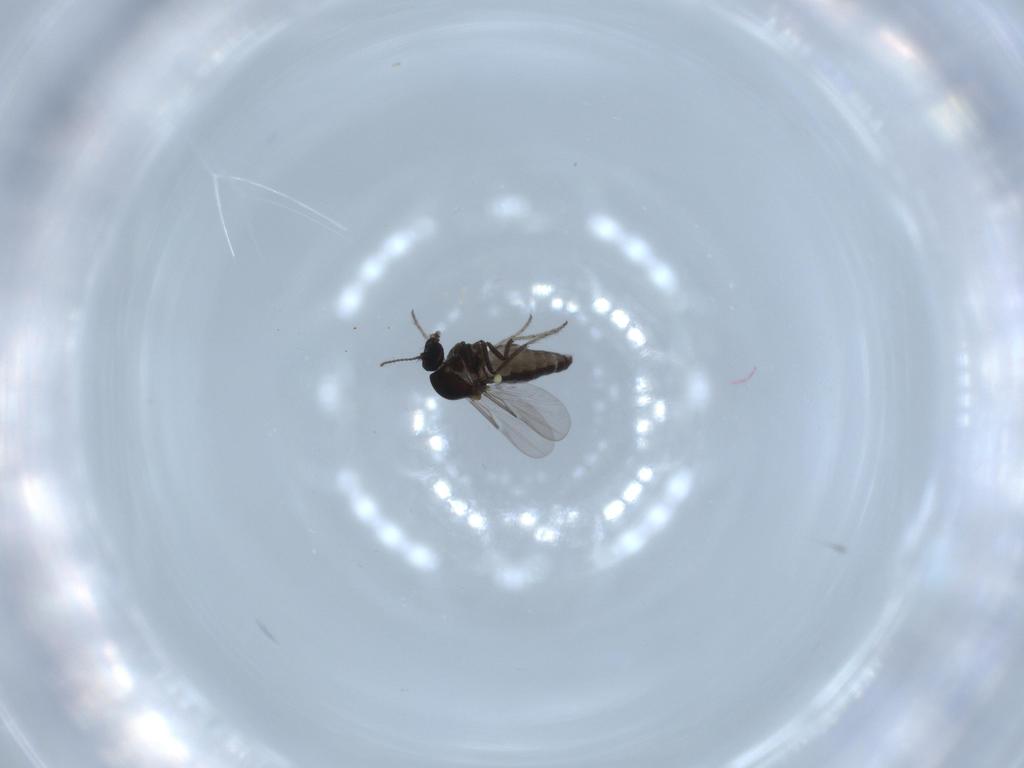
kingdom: Animalia
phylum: Arthropoda
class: Insecta
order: Diptera
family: Ceratopogonidae
